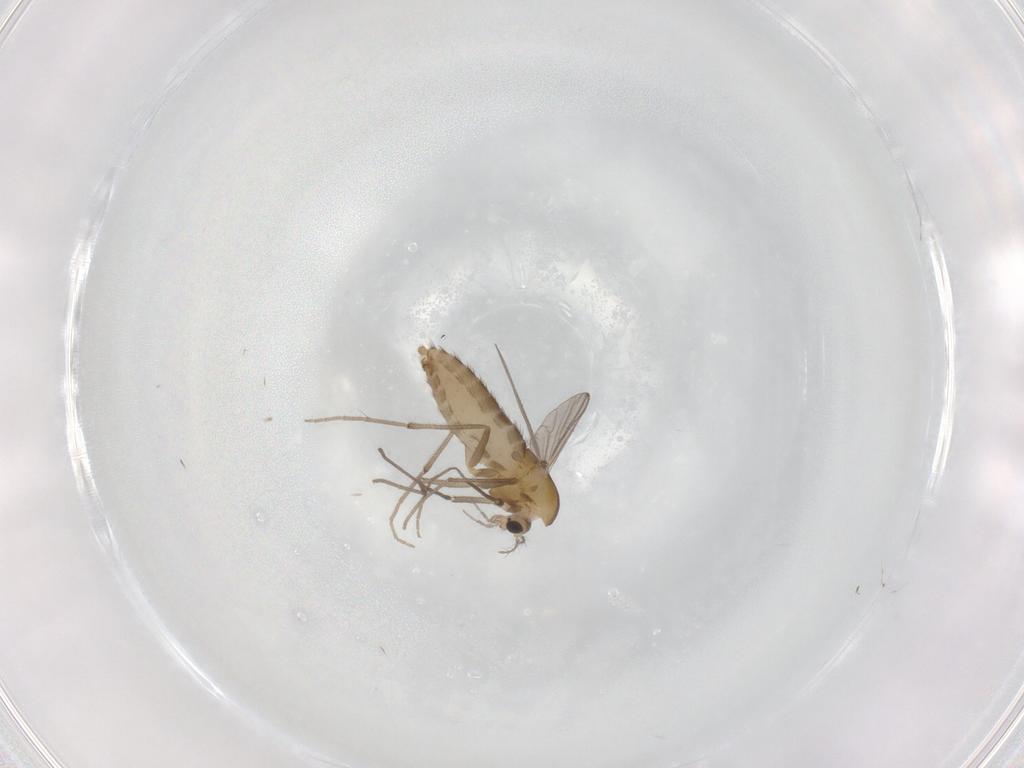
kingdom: Animalia
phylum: Arthropoda
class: Insecta
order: Diptera
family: Chironomidae
